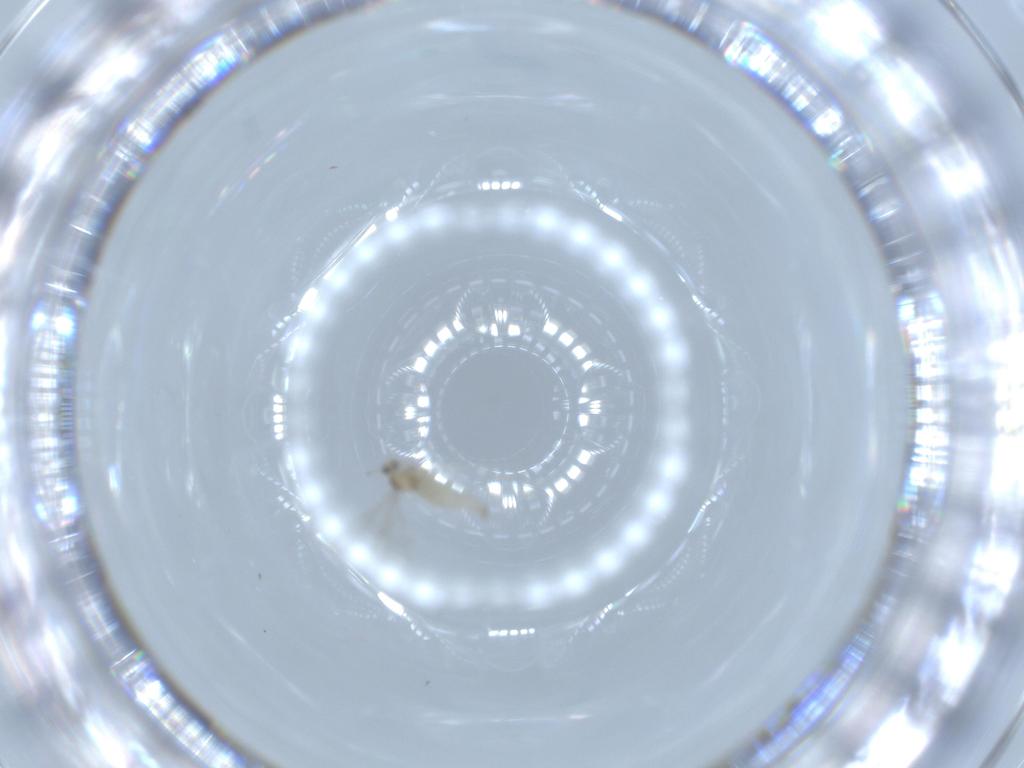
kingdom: Animalia
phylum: Arthropoda
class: Insecta
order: Diptera
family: Cecidomyiidae
